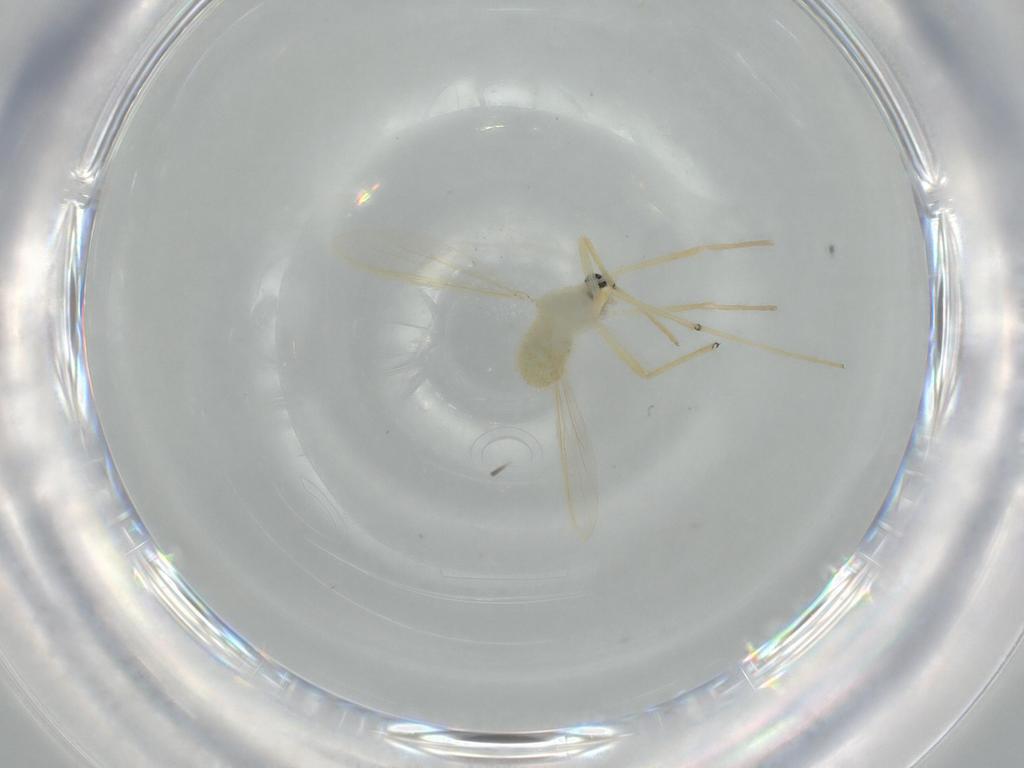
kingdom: Animalia
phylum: Arthropoda
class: Insecta
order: Diptera
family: Chironomidae
